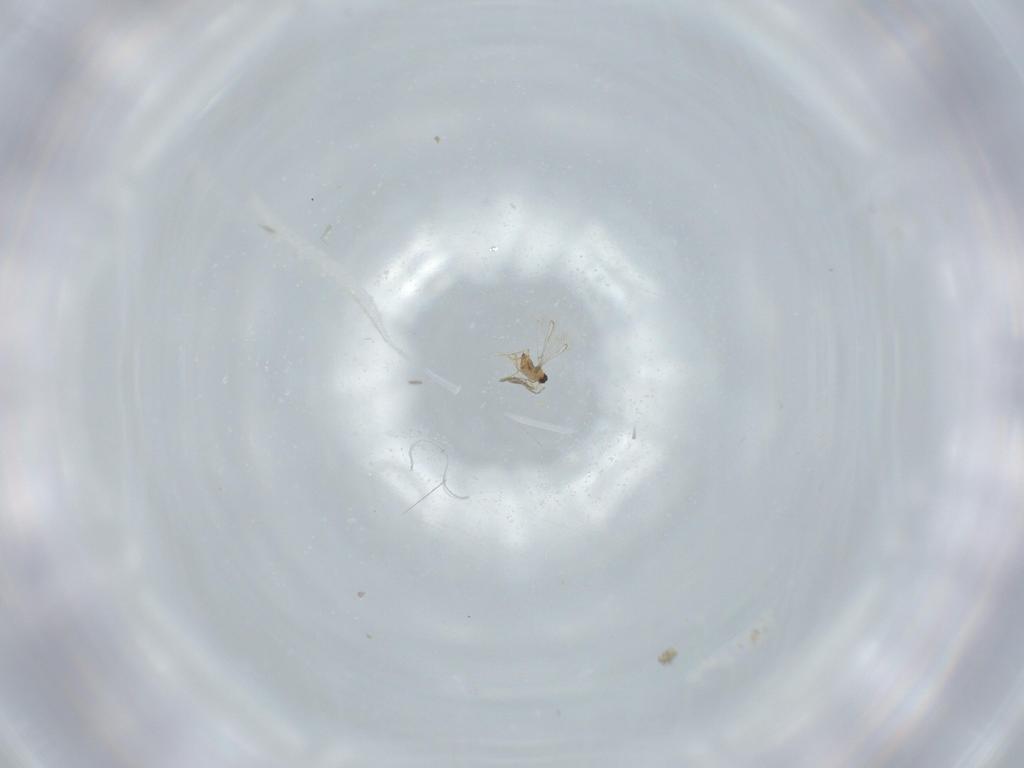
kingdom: Animalia
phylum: Arthropoda
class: Insecta
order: Hymenoptera
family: Mymaridae
